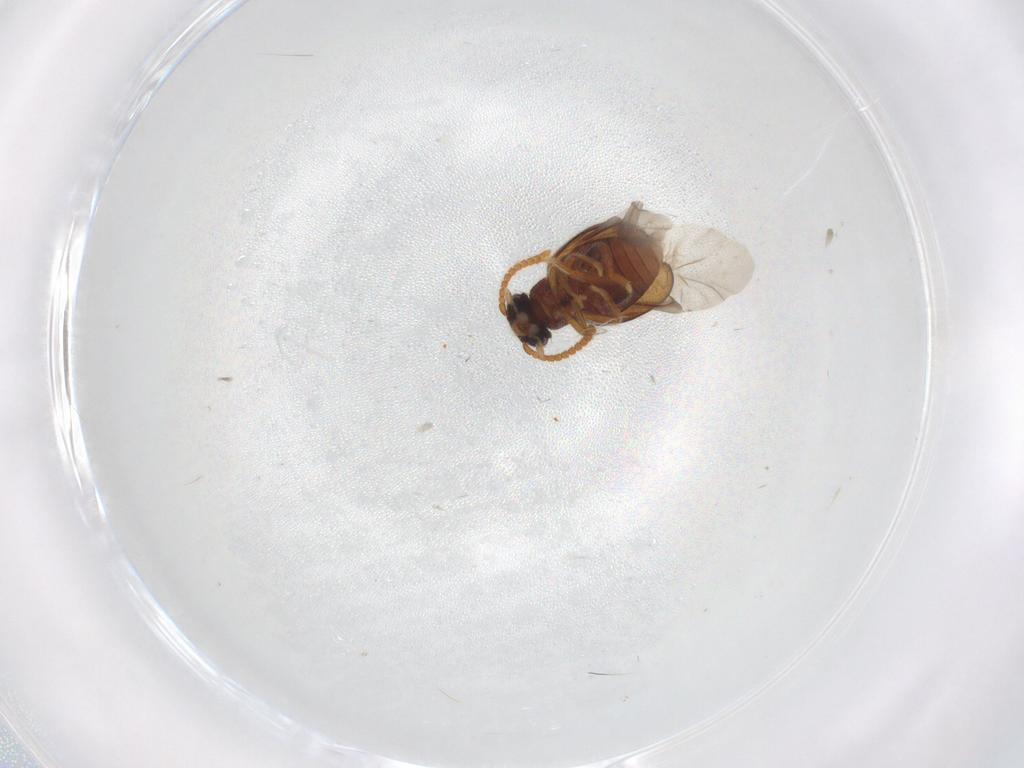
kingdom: Animalia
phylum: Arthropoda
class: Insecta
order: Coleoptera
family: Aderidae
